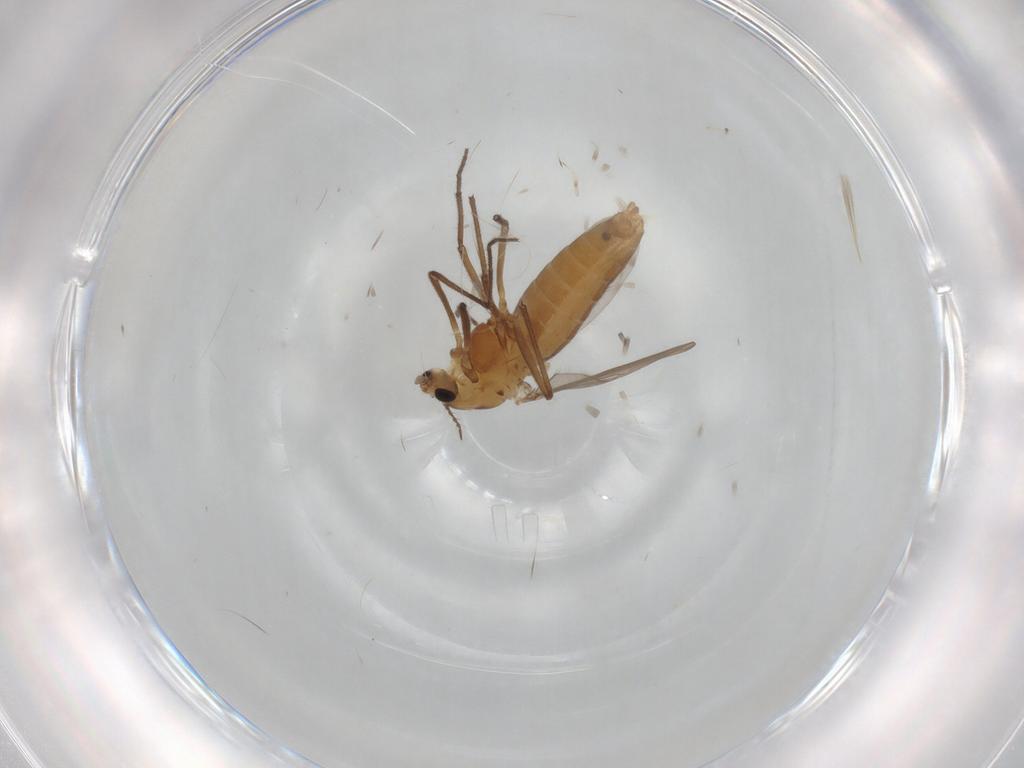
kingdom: Animalia
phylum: Arthropoda
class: Insecta
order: Diptera
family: Chironomidae
